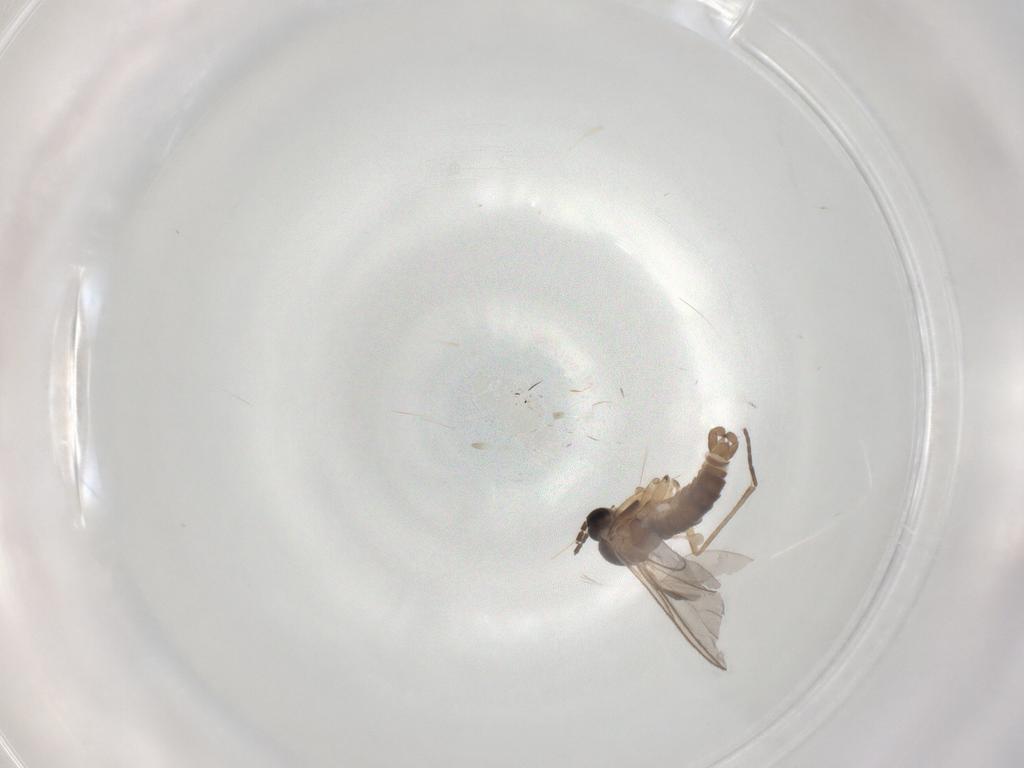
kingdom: Animalia
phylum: Arthropoda
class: Insecta
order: Diptera
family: Sciaridae
